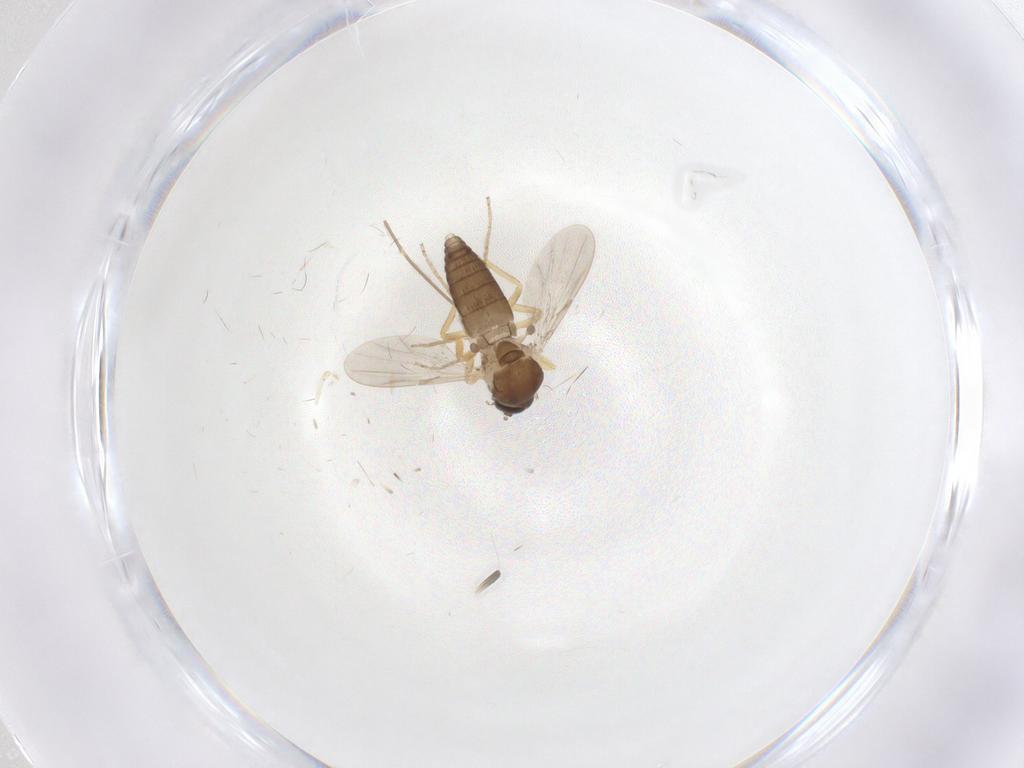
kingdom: Animalia
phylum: Arthropoda
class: Insecta
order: Diptera
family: Ceratopogonidae
